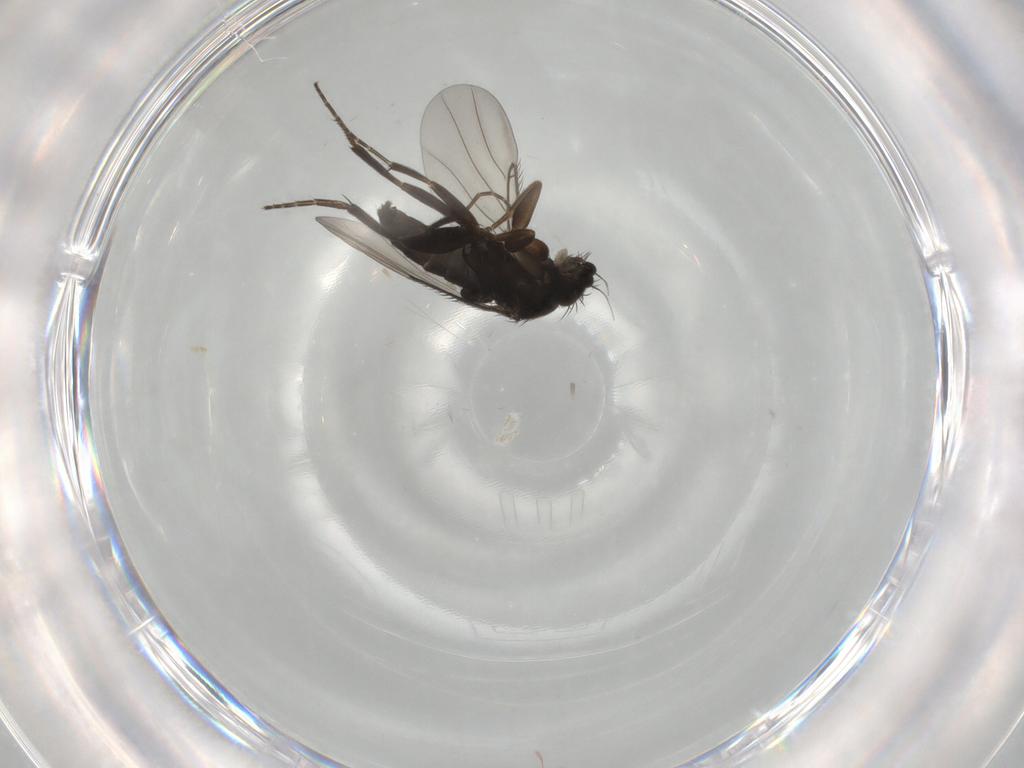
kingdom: Animalia
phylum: Arthropoda
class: Insecta
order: Diptera
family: Phoridae
